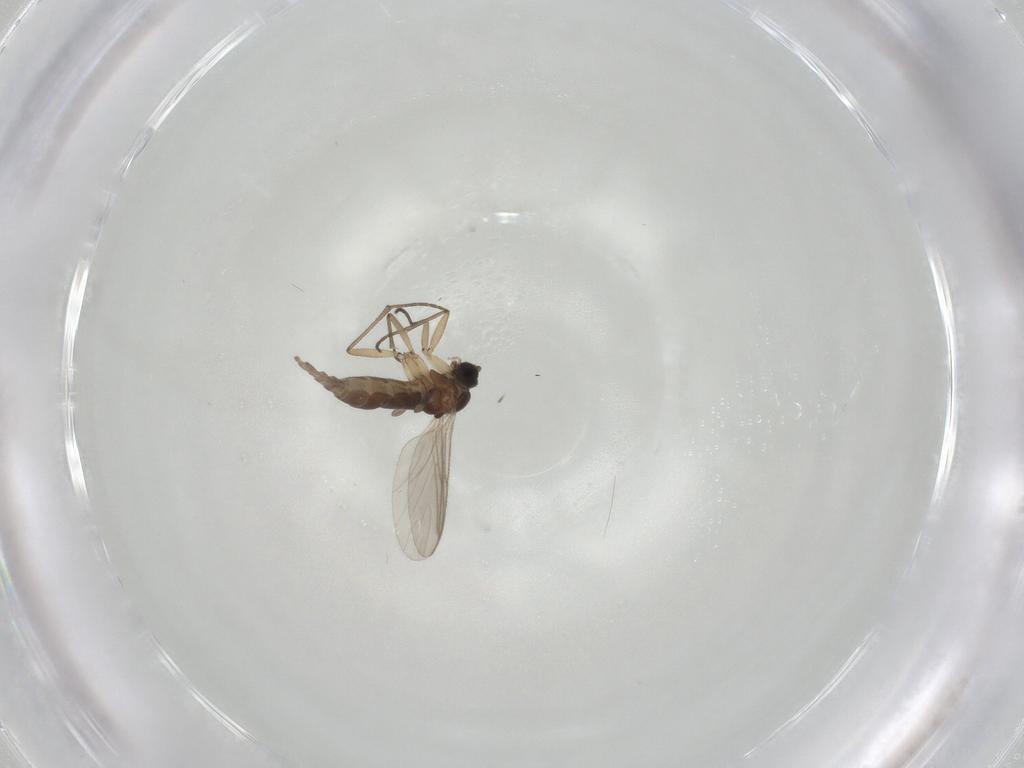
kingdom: Animalia
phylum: Arthropoda
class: Insecta
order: Diptera
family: Sciaridae
